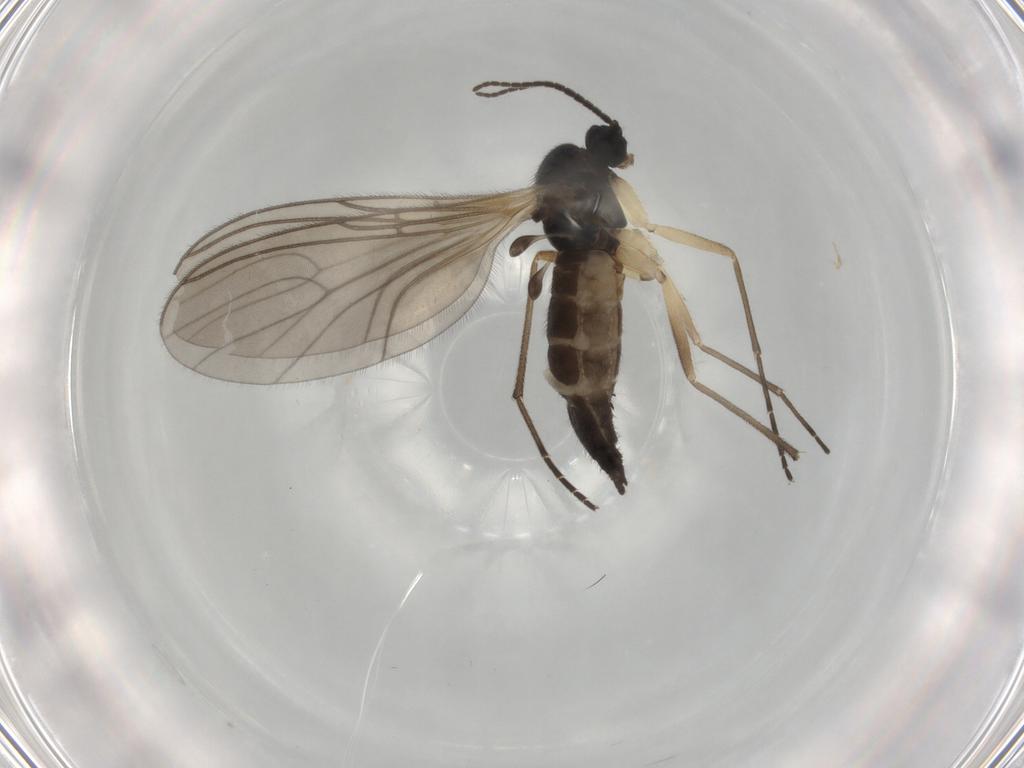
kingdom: Animalia
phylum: Arthropoda
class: Insecta
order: Diptera
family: Sciaridae
